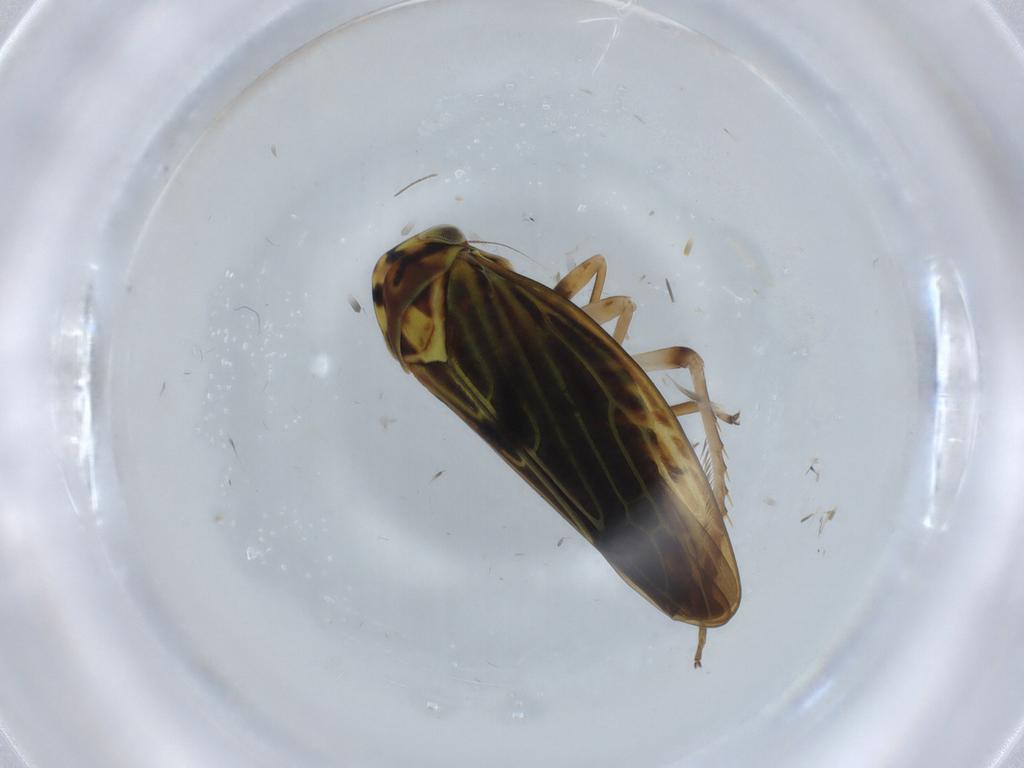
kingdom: Animalia
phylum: Arthropoda
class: Insecta
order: Hemiptera
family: Cicadellidae
